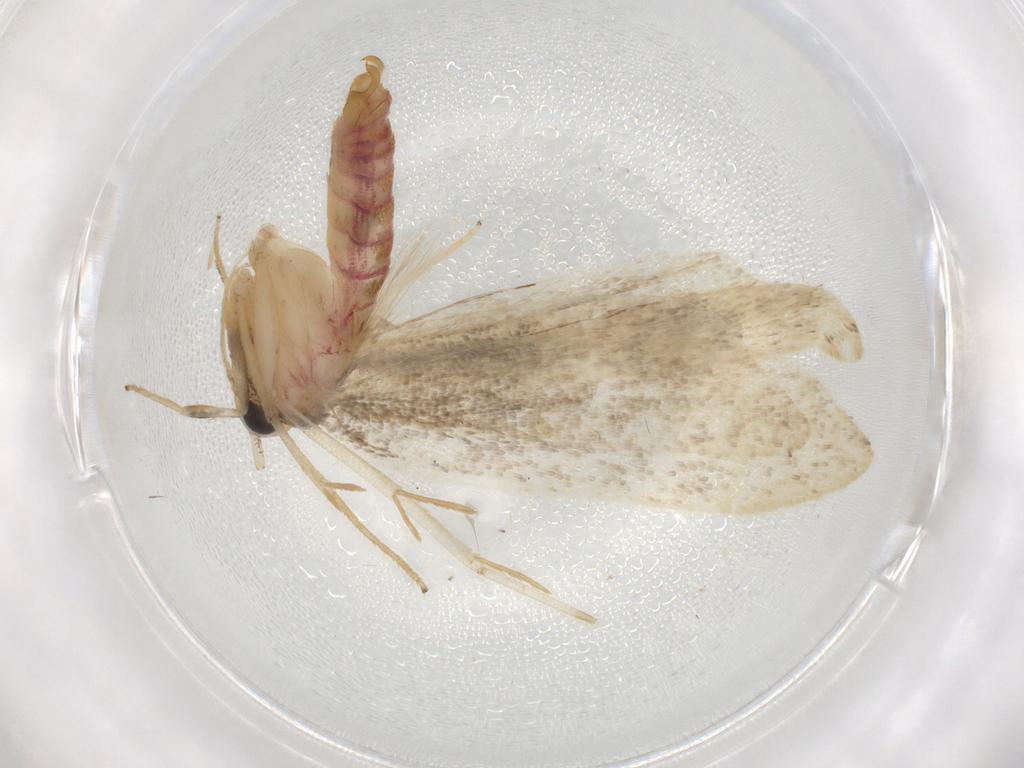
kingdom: Animalia
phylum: Arthropoda
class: Insecta
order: Lepidoptera
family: Lecithoceridae
